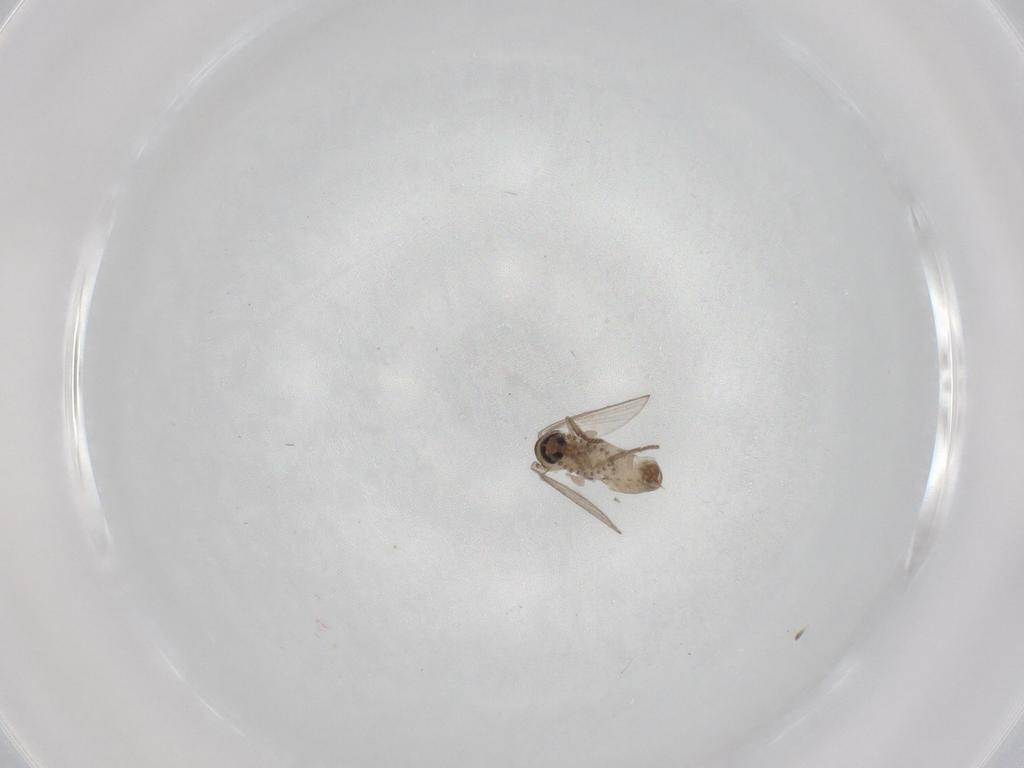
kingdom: Animalia
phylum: Arthropoda
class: Insecta
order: Diptera
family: Psychodidae
